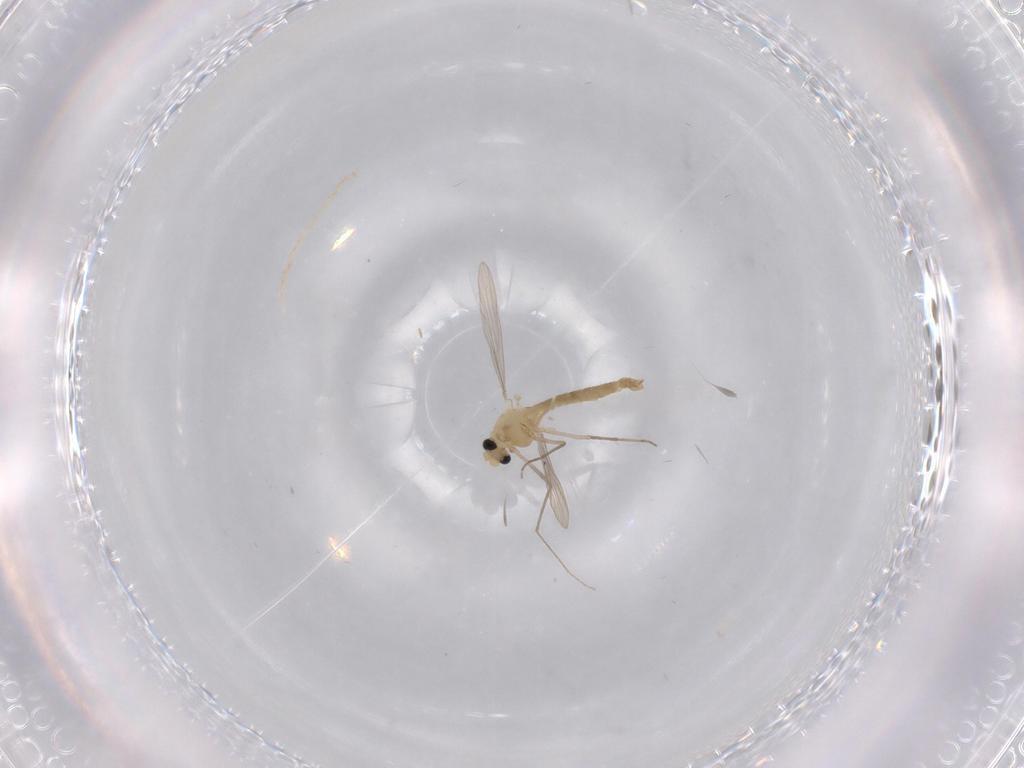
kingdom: Animalia
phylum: Arthropoda
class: Insecta
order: Diptera
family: Chironomidae
